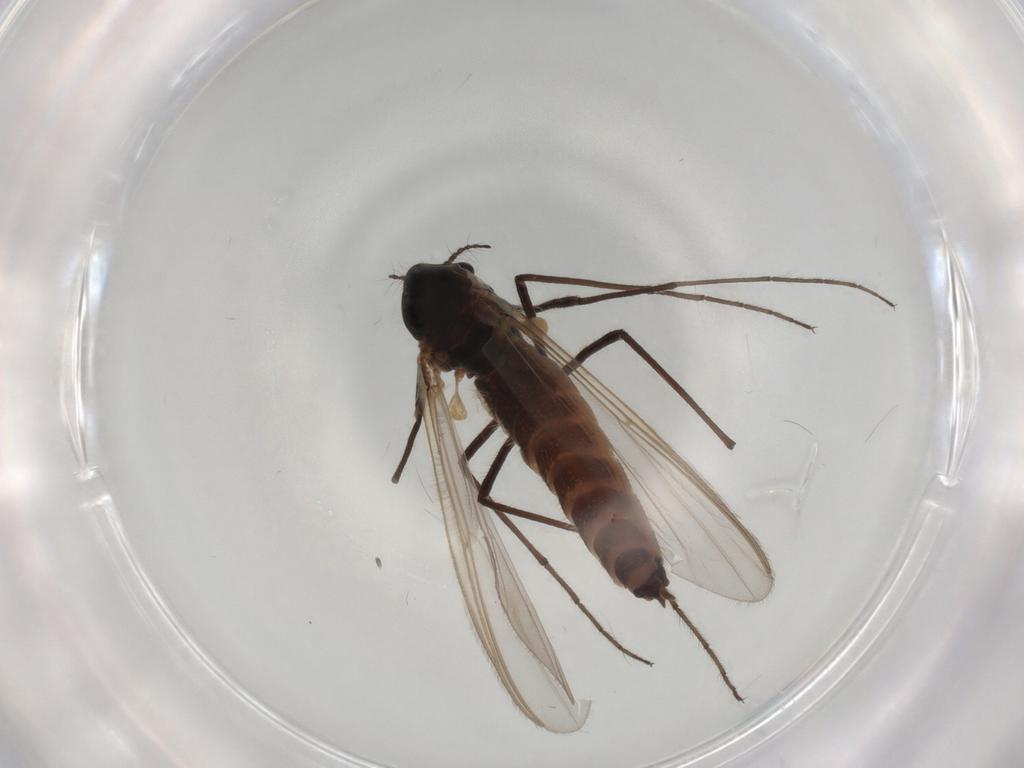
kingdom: Animalia
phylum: Arthropoda
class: Insecta
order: Diptera
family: Chironomidae
